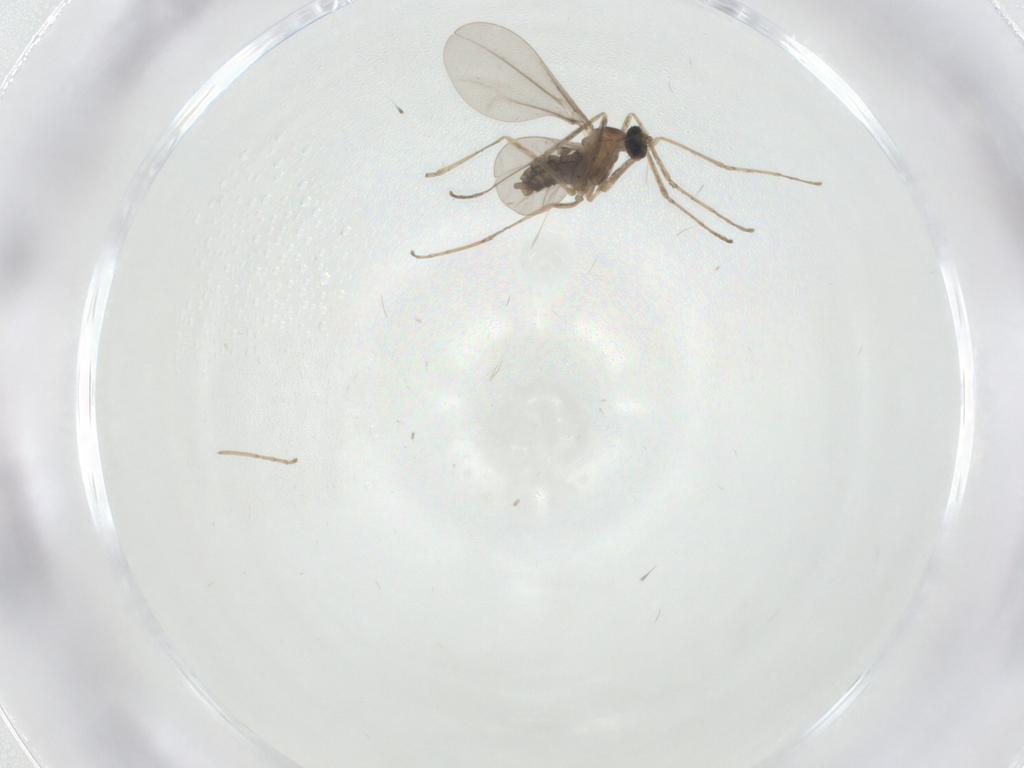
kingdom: Animalia
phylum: Arthropoda
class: Insecta
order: Diptera
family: Cecidomyiidae
